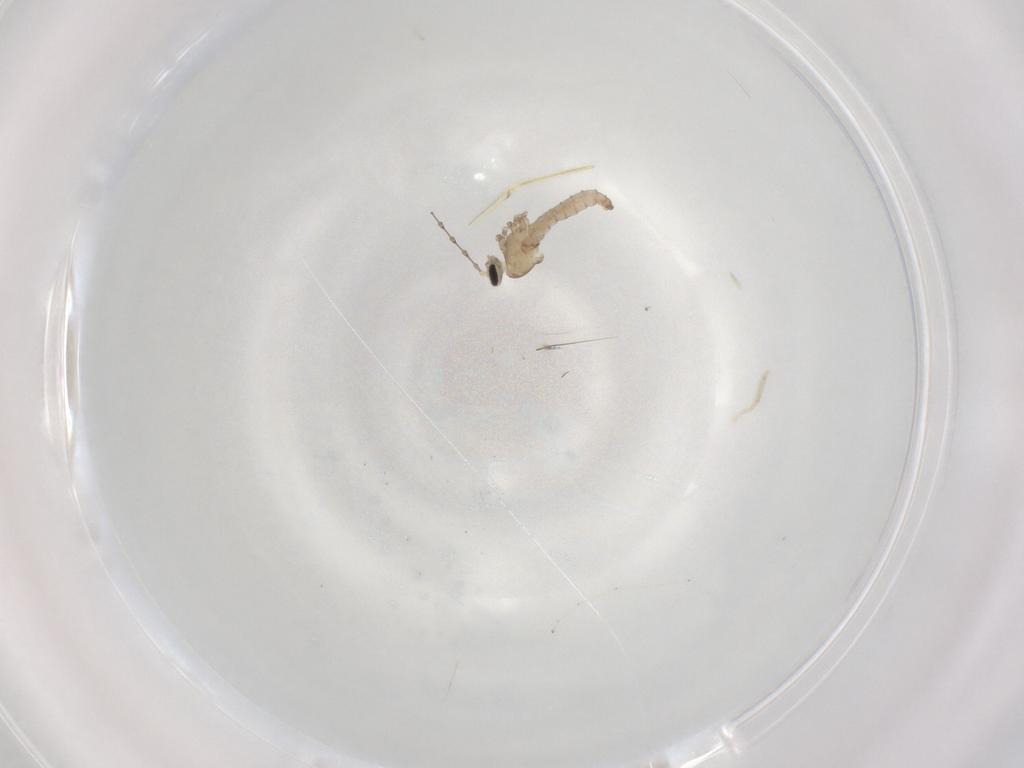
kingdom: Animalia
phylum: Arthropoda
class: Insecta
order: Diptera
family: Cecidomyiidae
